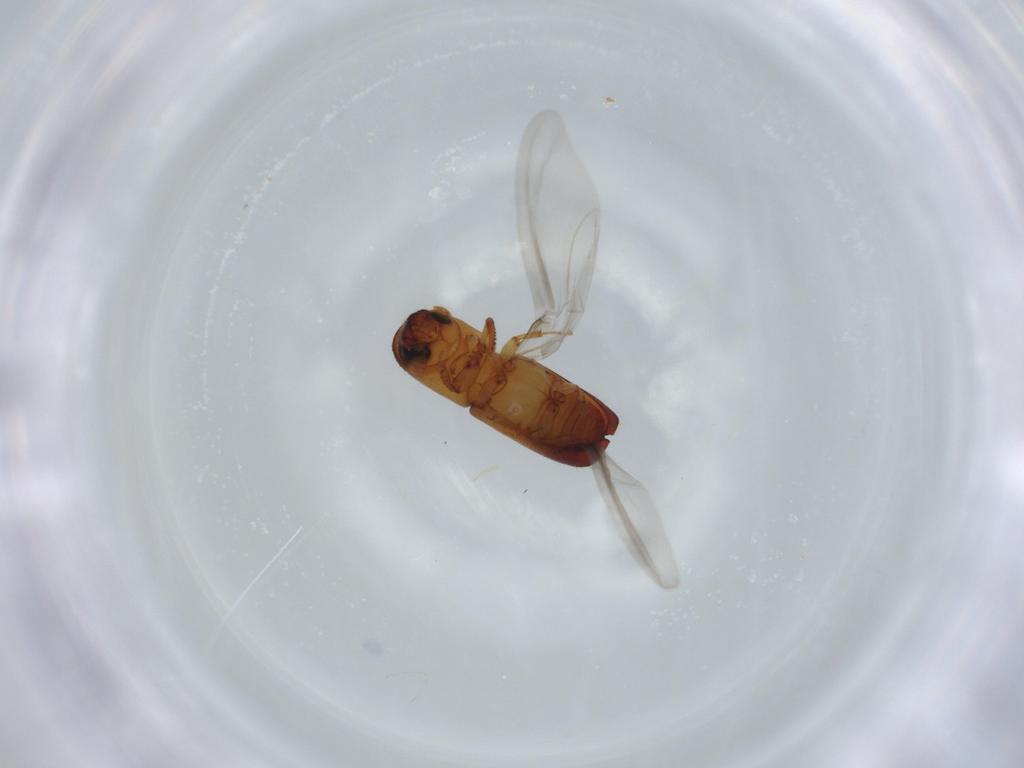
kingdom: Animalia
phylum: Arthropoda
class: Insecta
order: Coleoptera
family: Curculionidae
